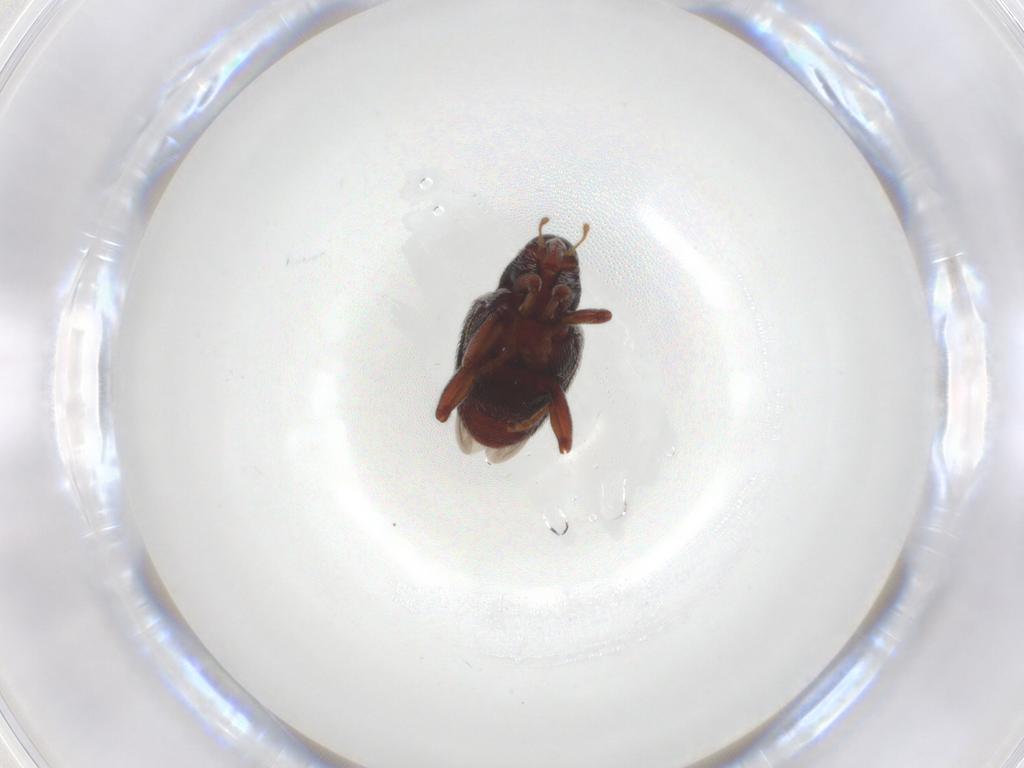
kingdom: Animalia
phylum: Arthropoda
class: Insecta
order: Coleoptera
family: Curculionidae
